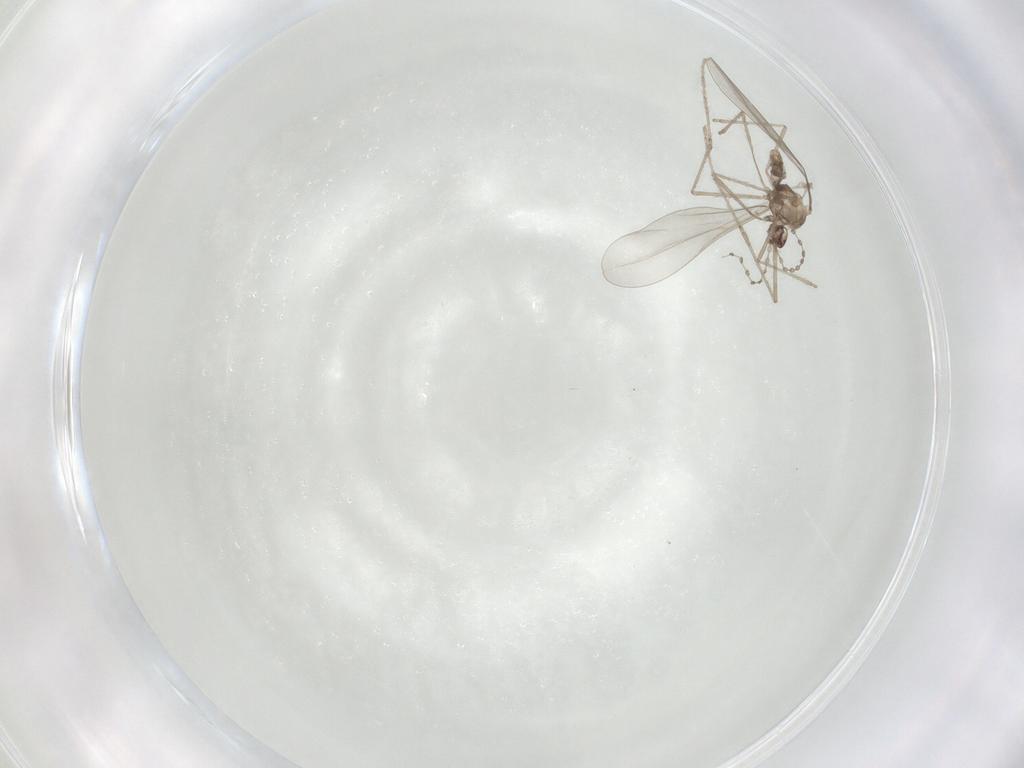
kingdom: Animalia
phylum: Arthropoda
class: Insecta
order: Diptera
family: Cecidomyiidae
